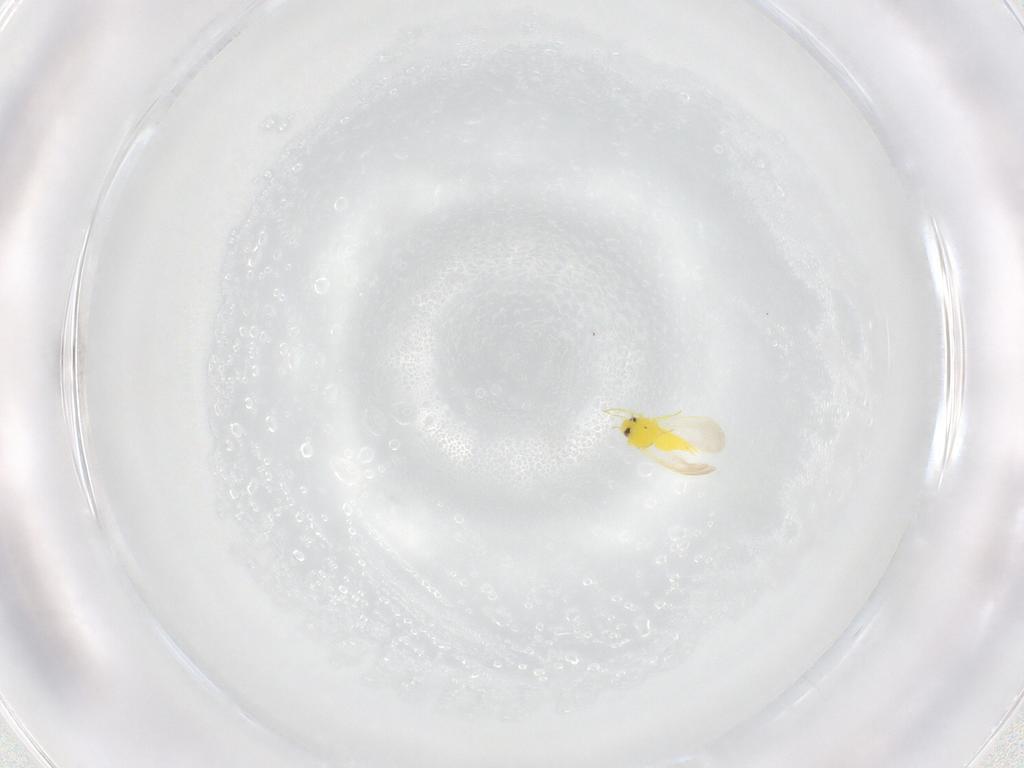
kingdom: Animalia
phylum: Arthropoda
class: Insecta
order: Hemiptera
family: Aleyrodidae
